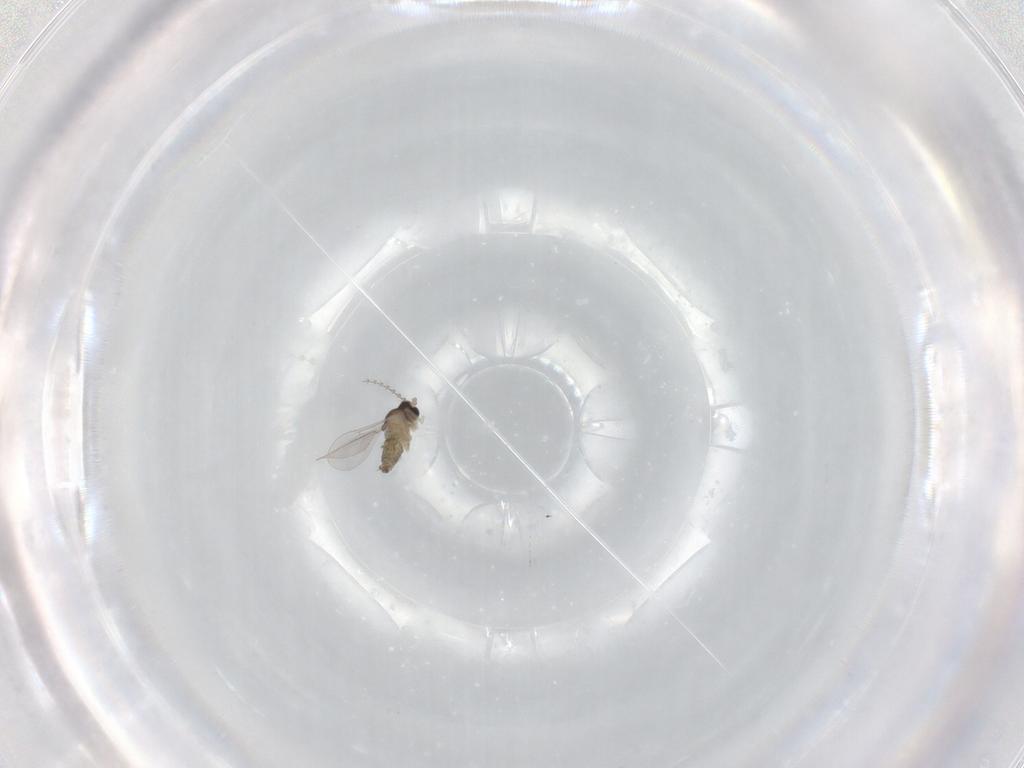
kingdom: Animalia
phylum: Arthropoda
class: Insecta
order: Diptera
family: Cecidomyiidae
